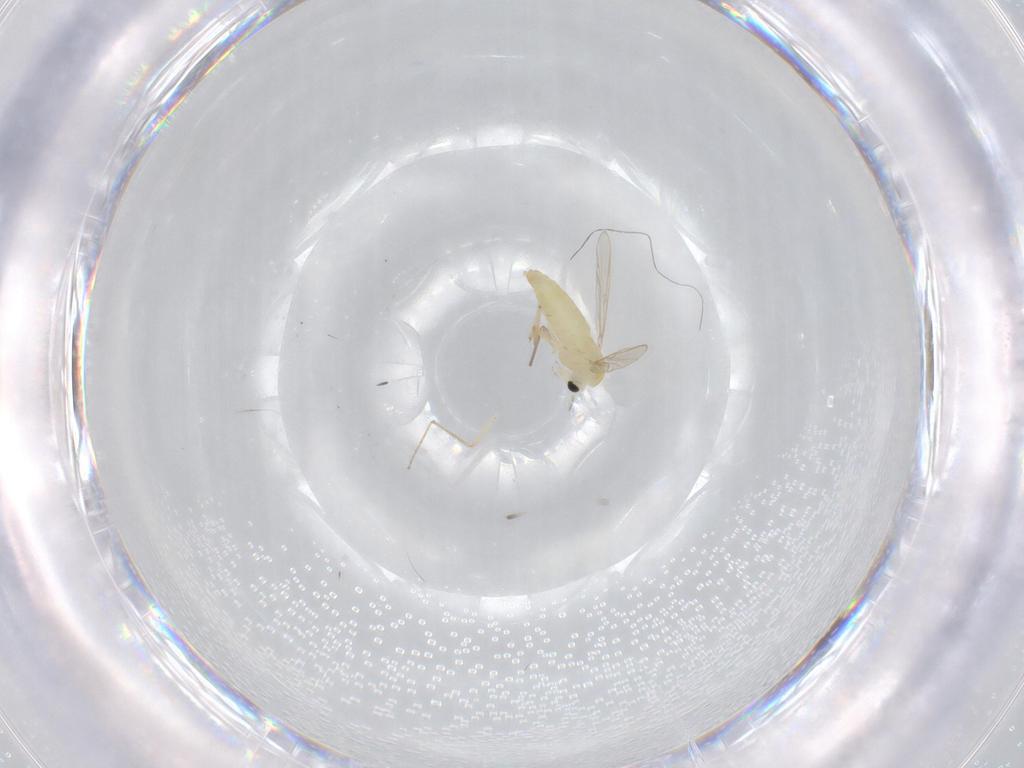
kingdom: Animalia
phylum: Arthropoda
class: Insecta
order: Diptera
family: Chironomidae
